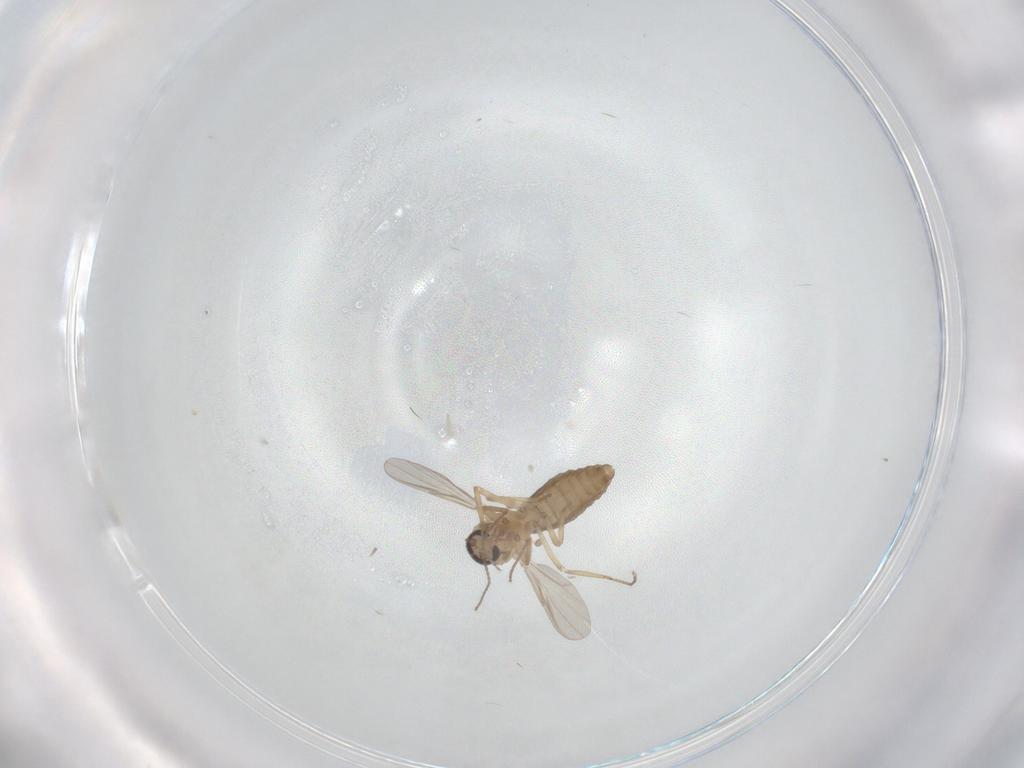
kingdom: Animalia
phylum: Arthropoda
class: Insecta
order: Diptera
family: Ceratopogonidae
